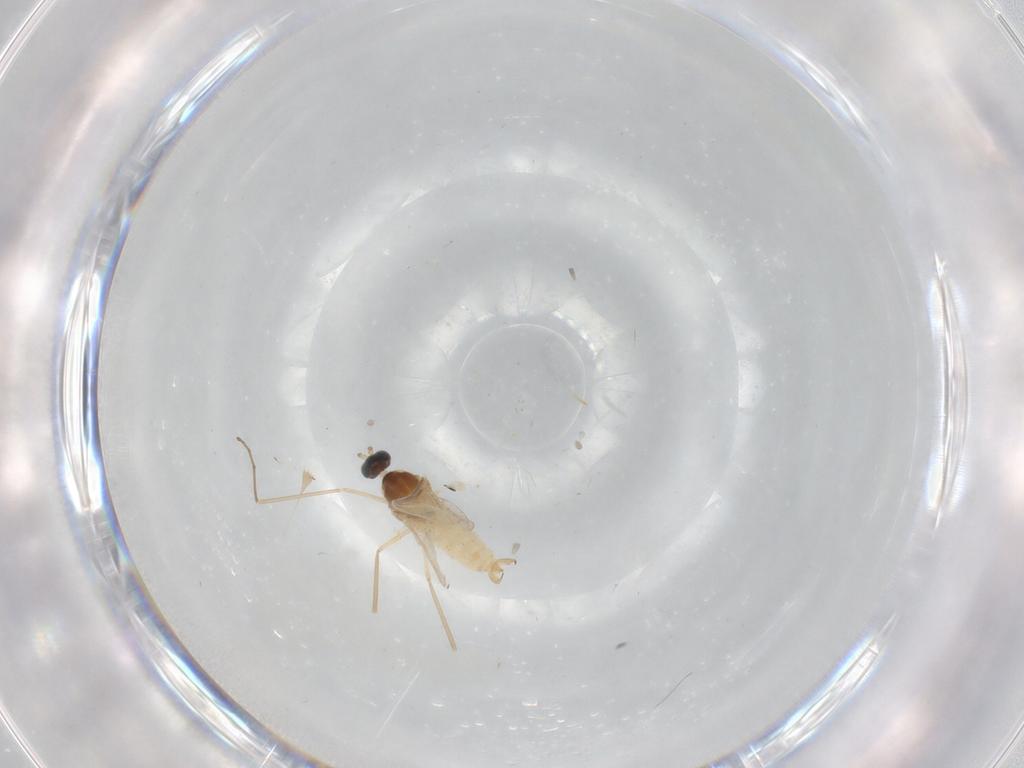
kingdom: Animalia
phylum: Arthropoda
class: Insecta
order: Diptera
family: Cecidomyiidae
